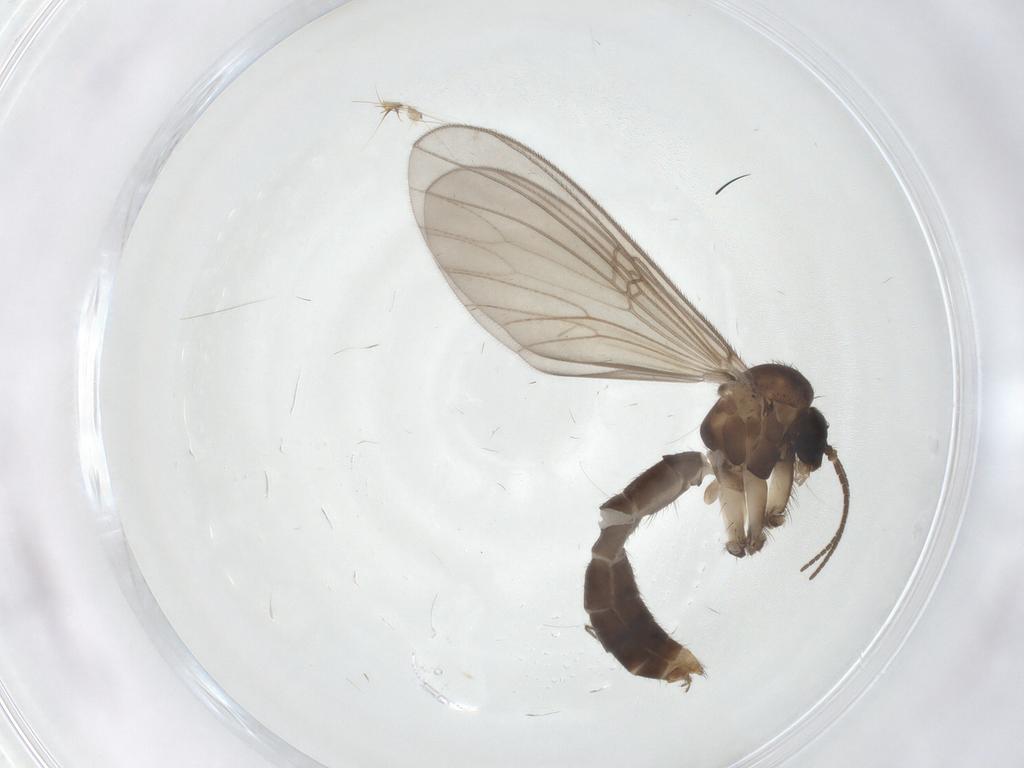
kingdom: Animalia
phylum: Arthropoda
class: Insecta
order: Diptera
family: Mycetophilidae
